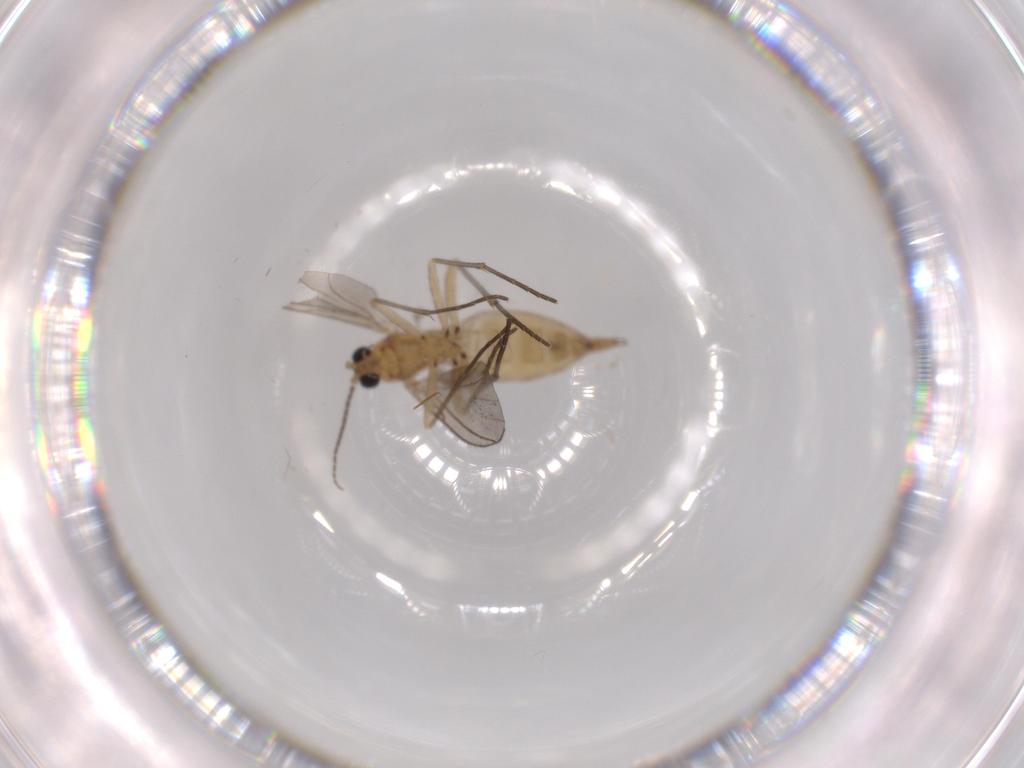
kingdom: Animalia
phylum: Arthropoda
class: Insecta
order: Diptera
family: Sciaridae
